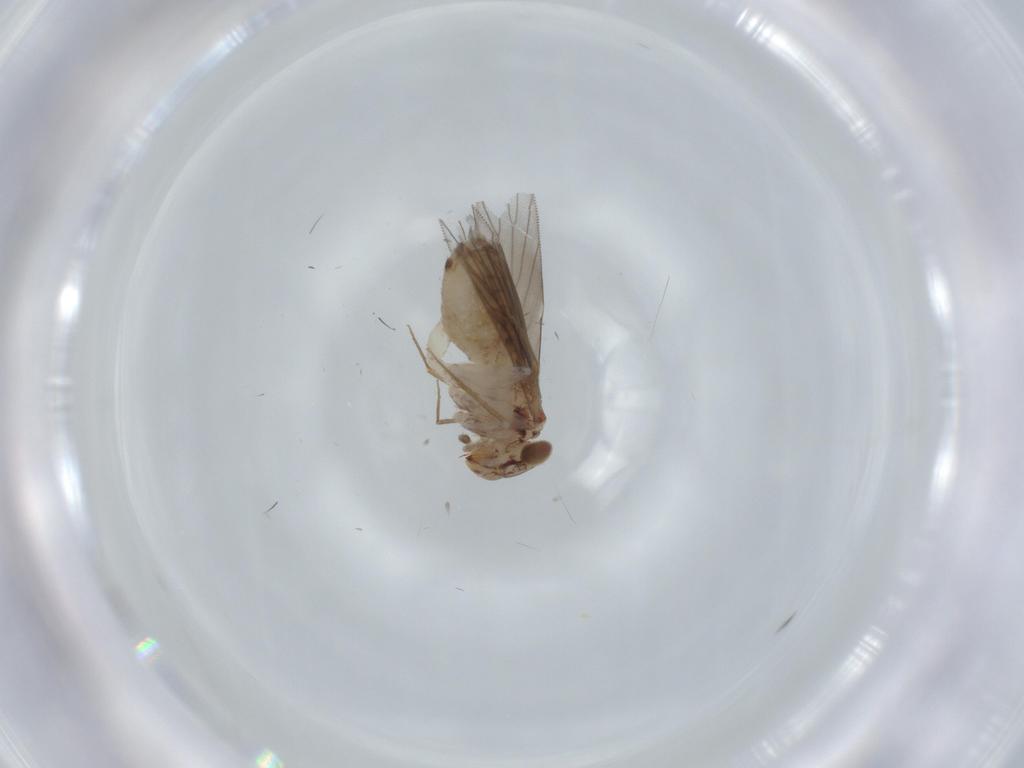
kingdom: Animalia
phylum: Arthropoda
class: Insecta
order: Psocodea
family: Lepidopsocidae
